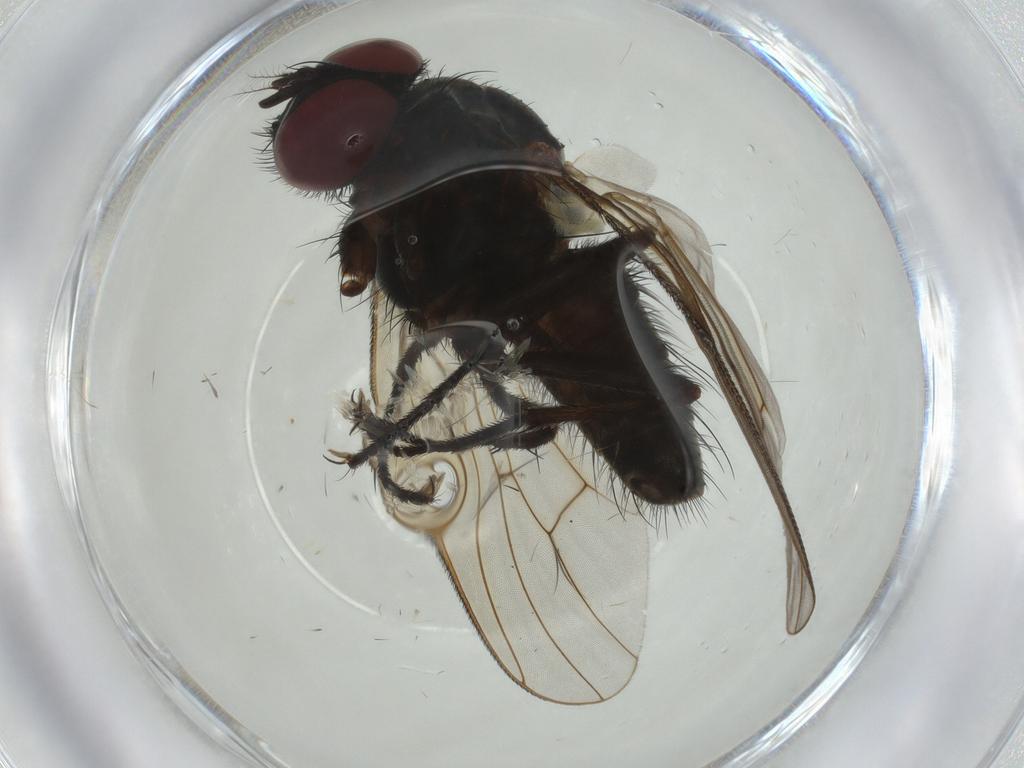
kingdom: Animalia
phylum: Arthropoda
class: Insecta
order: Diptera
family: Muscidae
